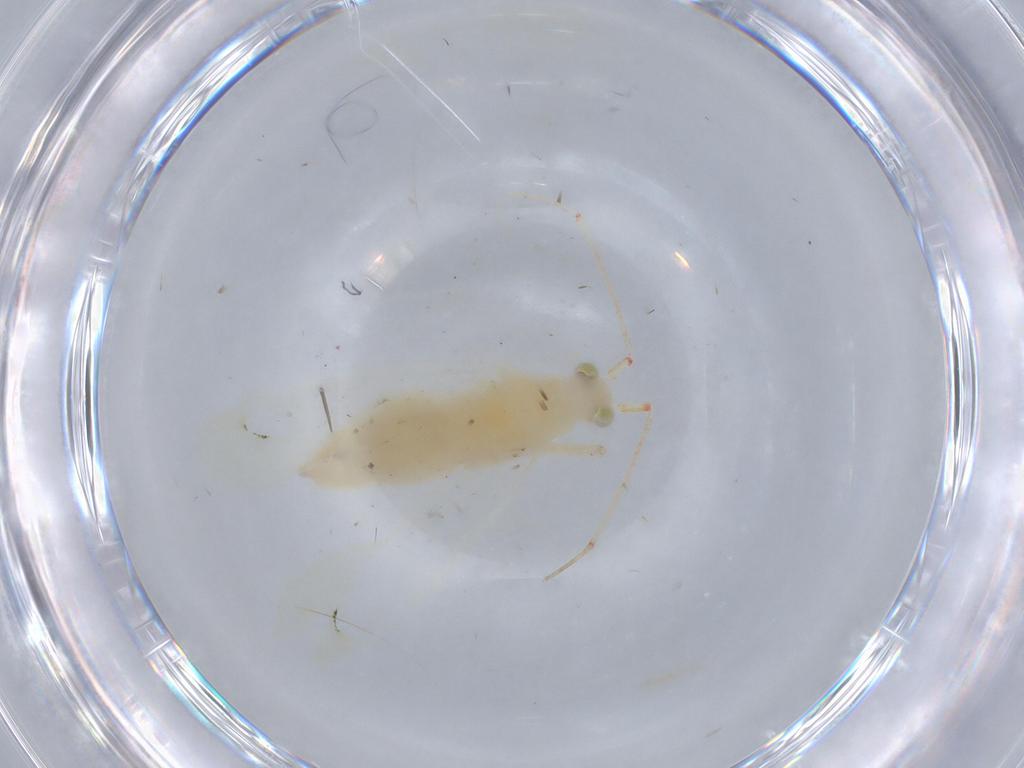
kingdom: Animalia
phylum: Arthropoda
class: Insecta
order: Hemiptera
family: Miridae
